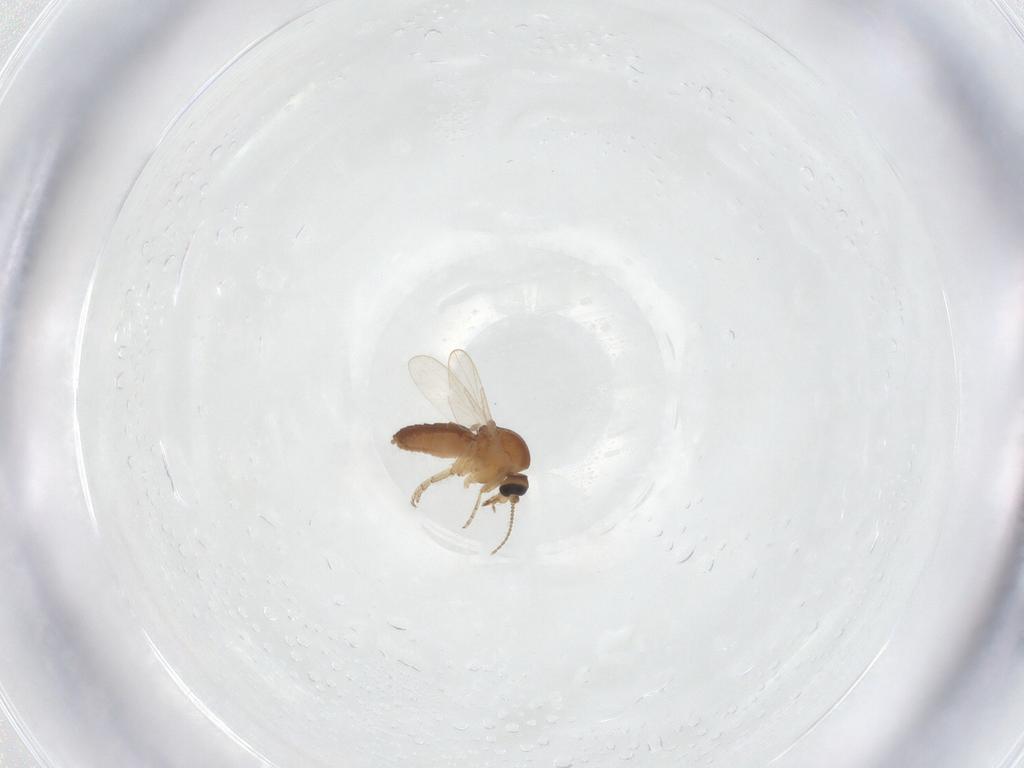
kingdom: Animalia
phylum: Arthropoda
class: Insecta
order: Diptera
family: Ceratopogonidae
